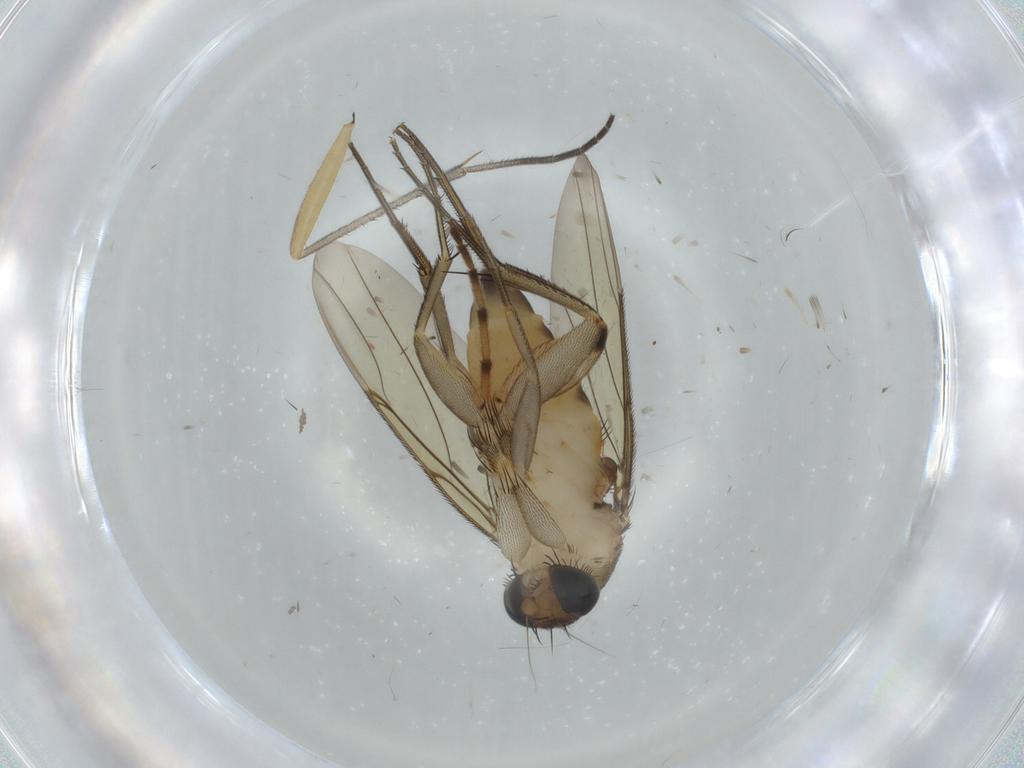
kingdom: Animalia
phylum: Arthropoda
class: Insecta
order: Diptera
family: Phoridae
